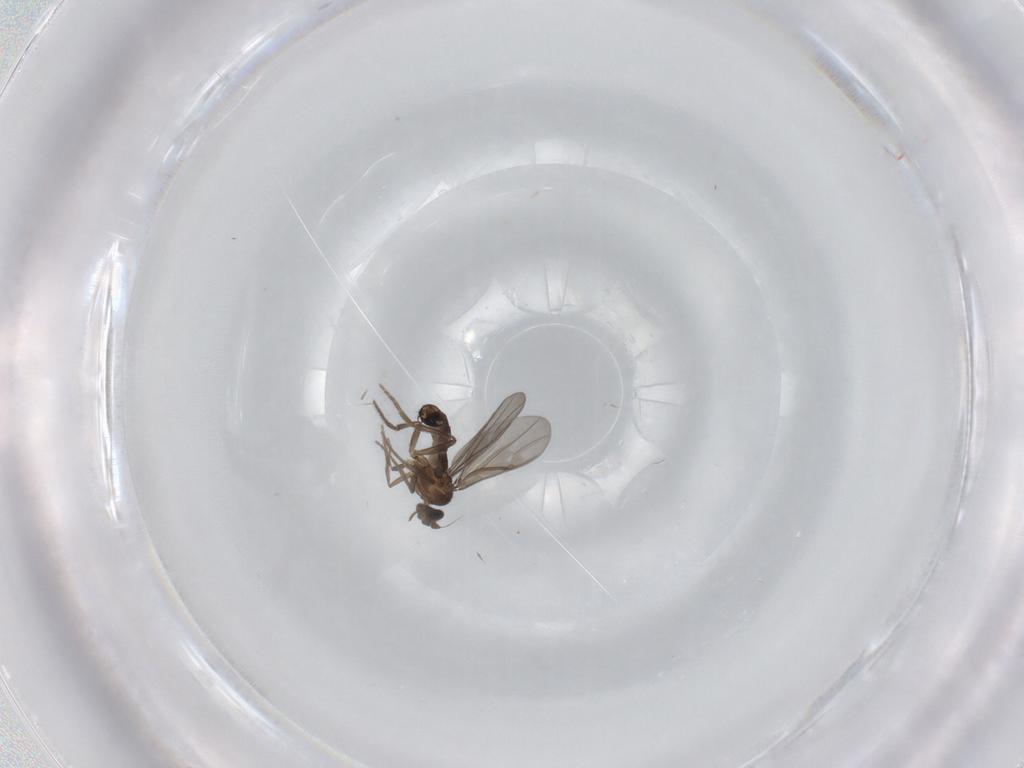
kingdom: Animalia
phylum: Arthropoda
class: Insecta
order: Diptera
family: Phoridae
